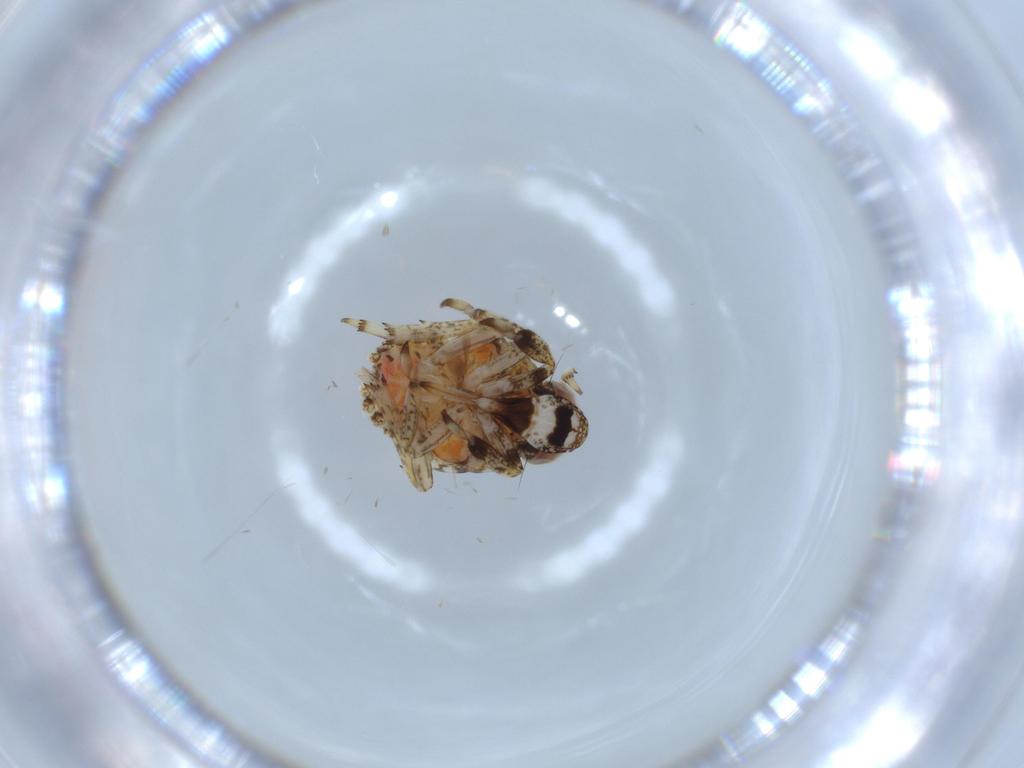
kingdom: Animalia
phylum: Arthropoda
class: Insecta
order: Hemiptera
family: Issidae
